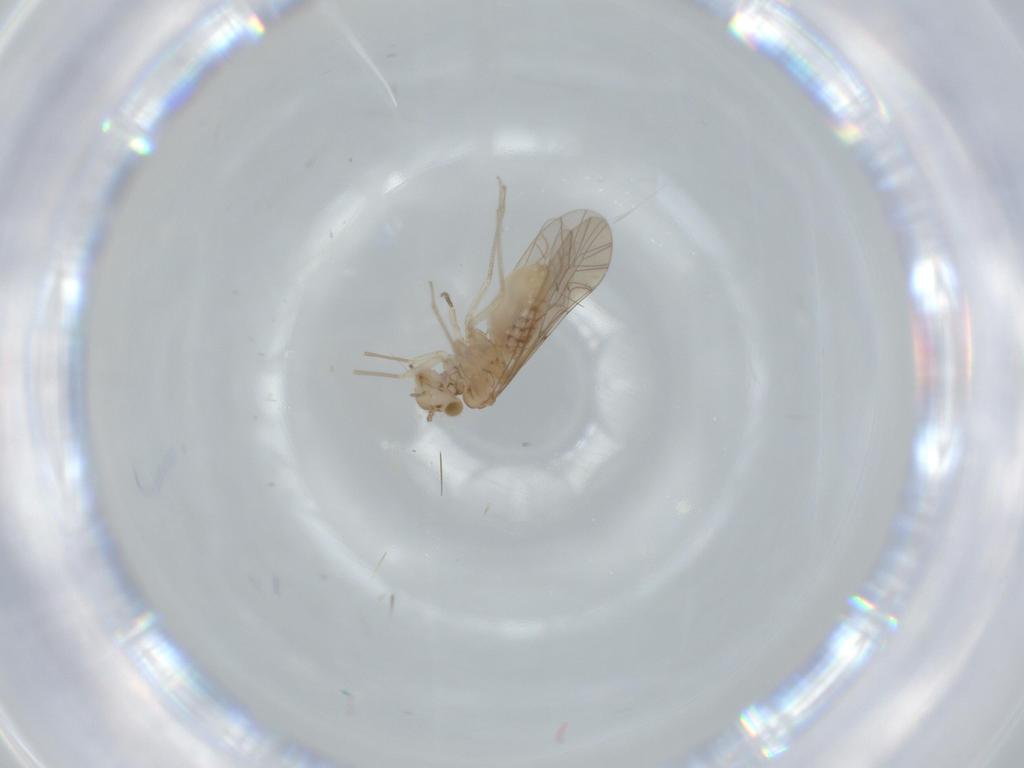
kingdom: Animalia
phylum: Arthropoda
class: Insecta
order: Psocodea
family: Lachesillidae
